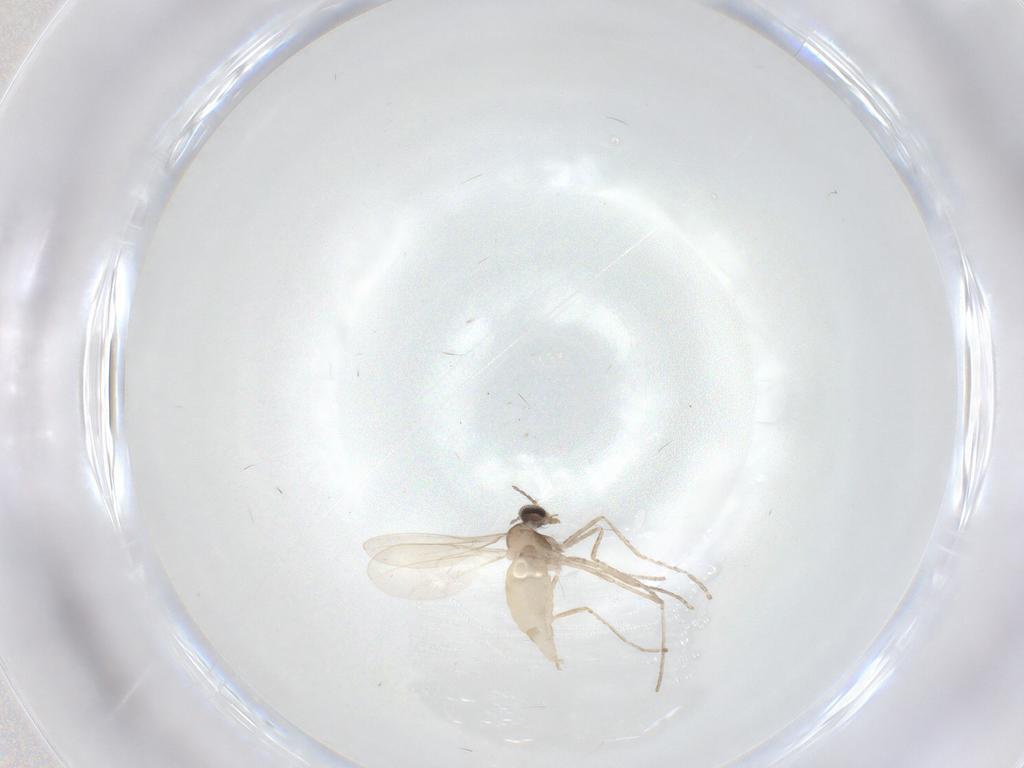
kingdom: Animalia
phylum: Arthropoda
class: Insecta
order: Diptera
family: Cecidomyiidae
